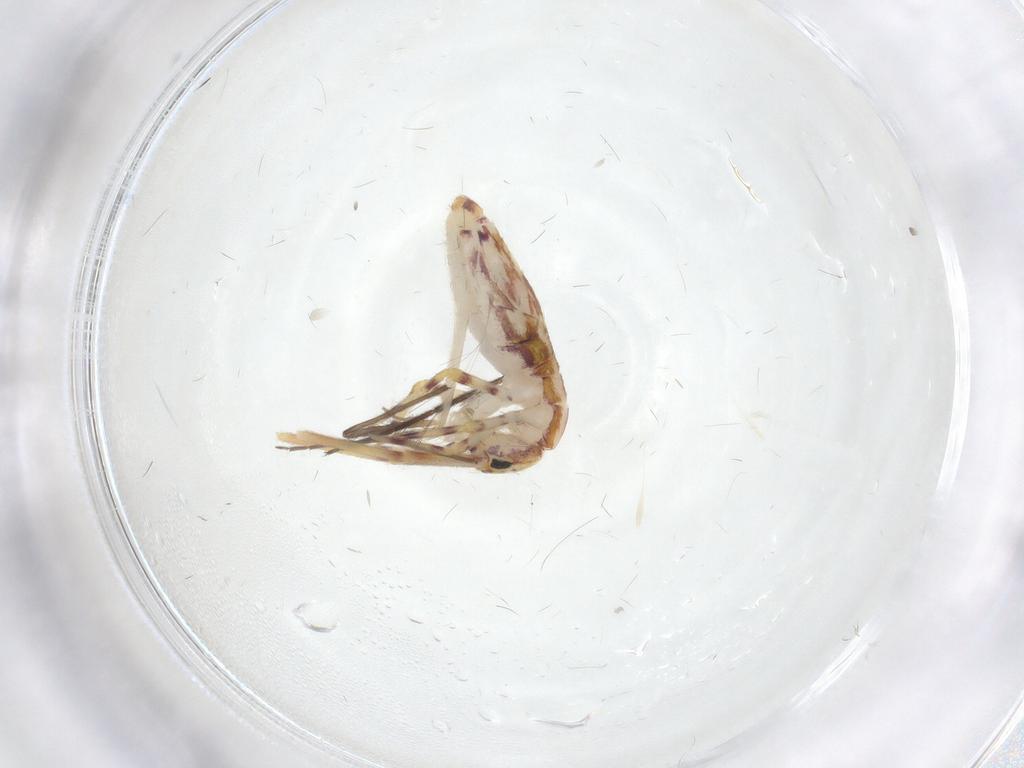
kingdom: Animalia
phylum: Arthropoda
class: Collembola
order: Entomobryomorpha
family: Entomobryidae
